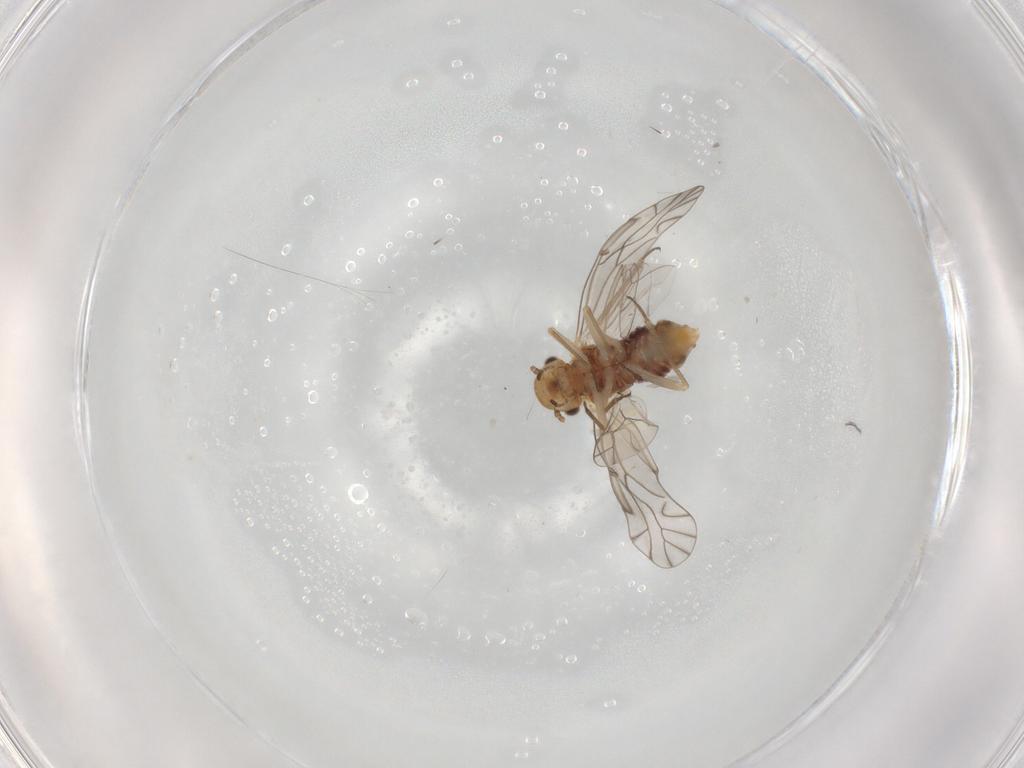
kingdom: Animalia
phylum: Arthropoda
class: Insecta
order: Psocodea
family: Lachesillidae
